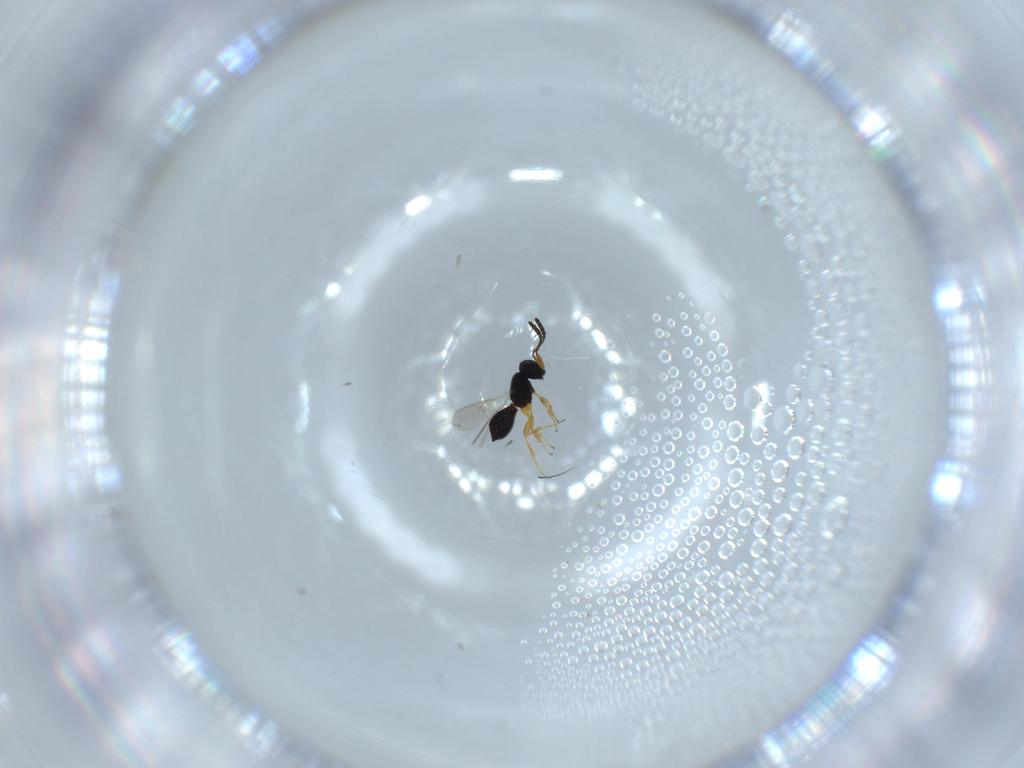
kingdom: Animalia
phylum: Arthropoda
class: Insecta
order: Hymenoptera
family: Scelionidae
